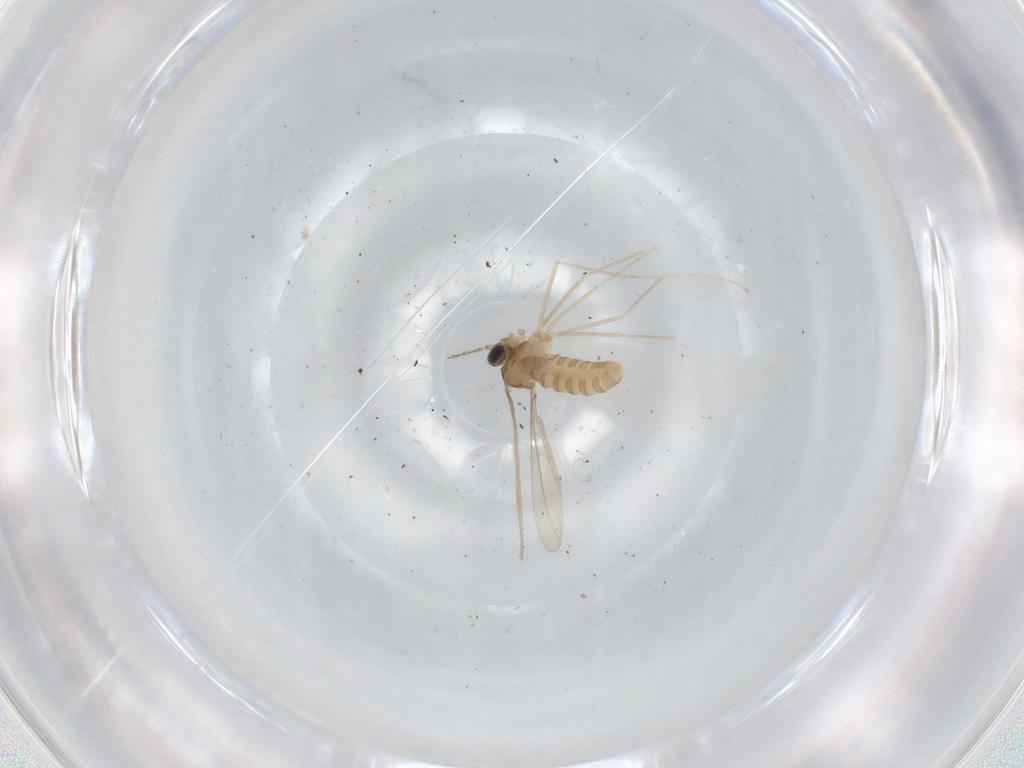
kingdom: Animalia
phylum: Arthropoda
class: Insecta
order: Diptera
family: Cecidomyiidae
